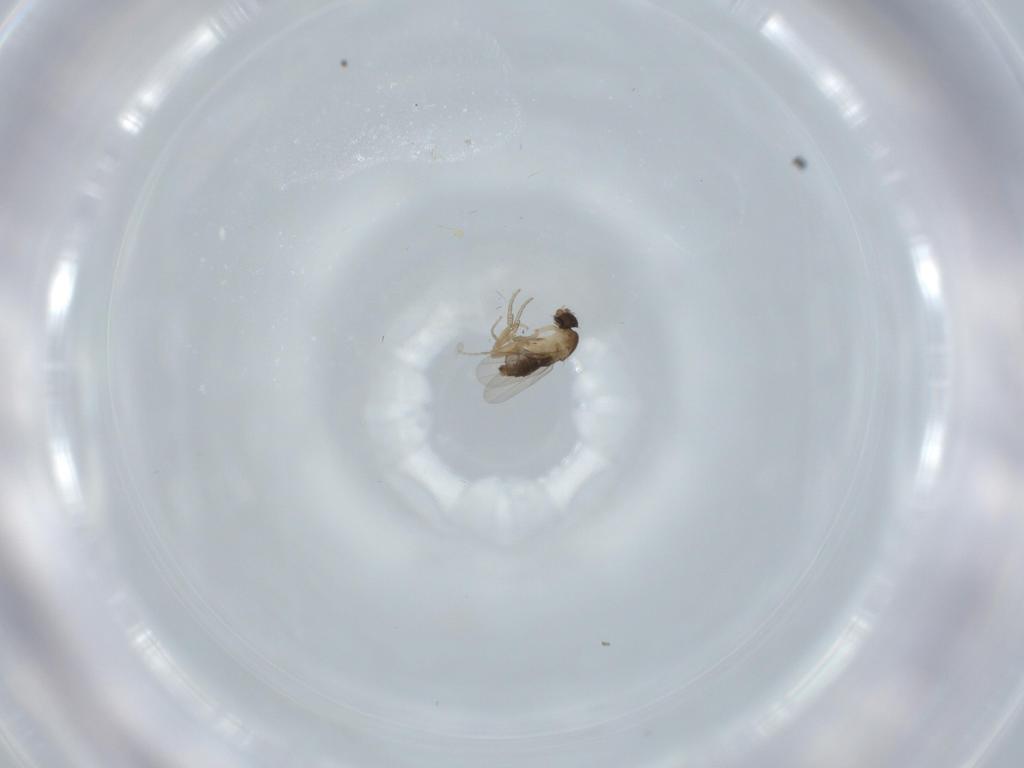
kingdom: Animalia
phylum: Arthropoda
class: Insecta
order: Diptera
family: Phoridae
